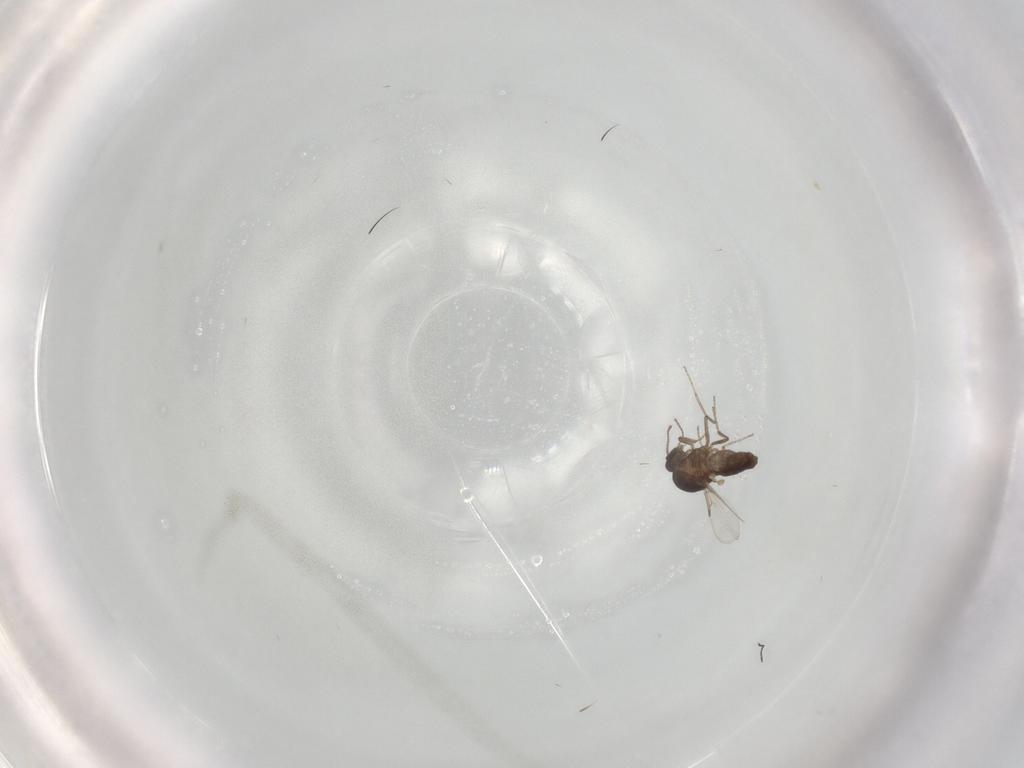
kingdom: Animalia
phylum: Arthropoda
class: Insecta
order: Diptera
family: Ceratopogonidae
